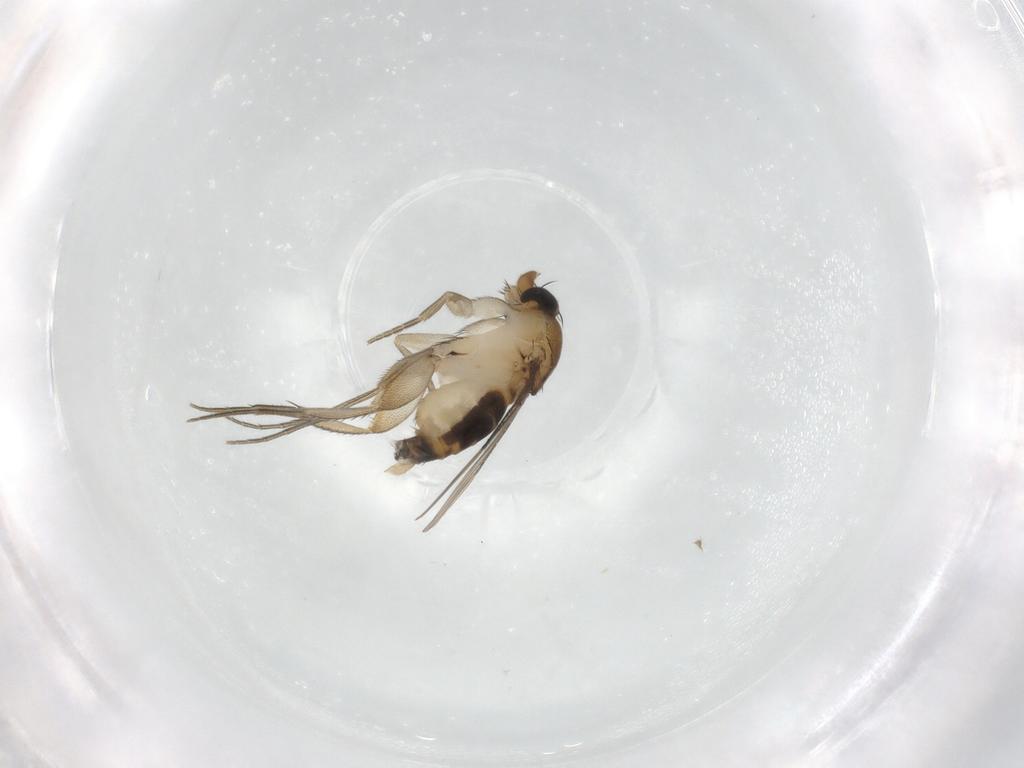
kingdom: Animalia
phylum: Arthropoda
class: Insecta
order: Diptera
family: Phoridae
